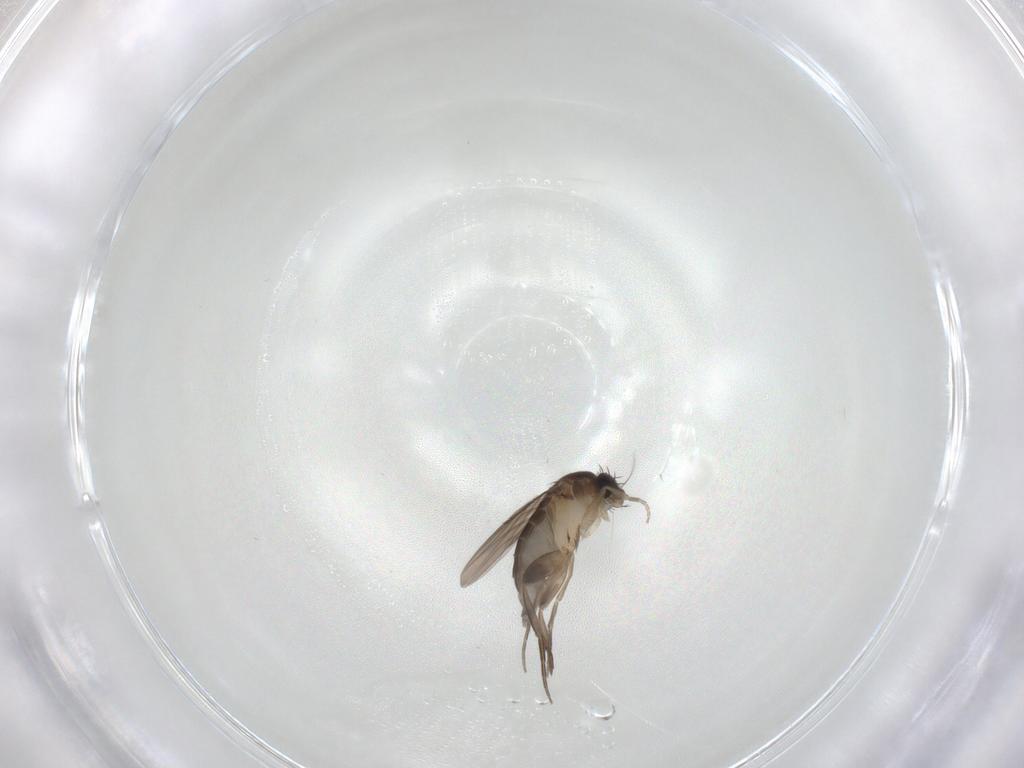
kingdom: Animalia
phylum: Arthropoda
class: Insecta
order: Diptera
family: Phoridae
